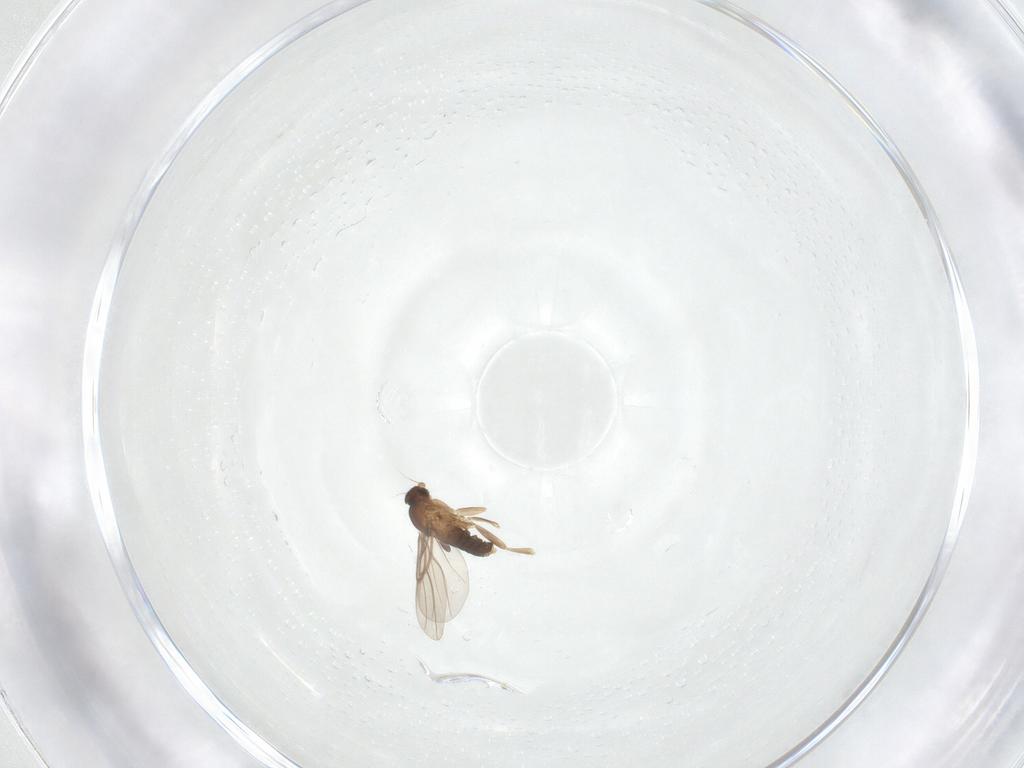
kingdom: Animalia
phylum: Arthropoda
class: Insecta
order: Diptera
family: Phoridae
